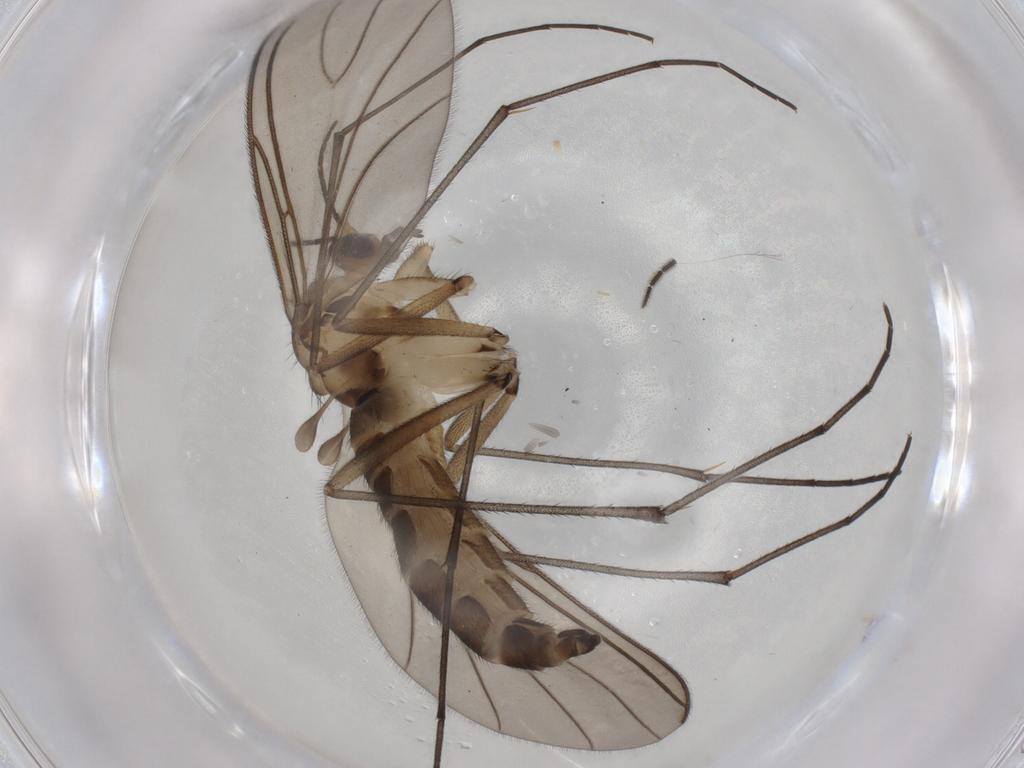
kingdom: Animalia
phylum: Arthropoda
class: Insecta
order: Diptera
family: Sciaridae
